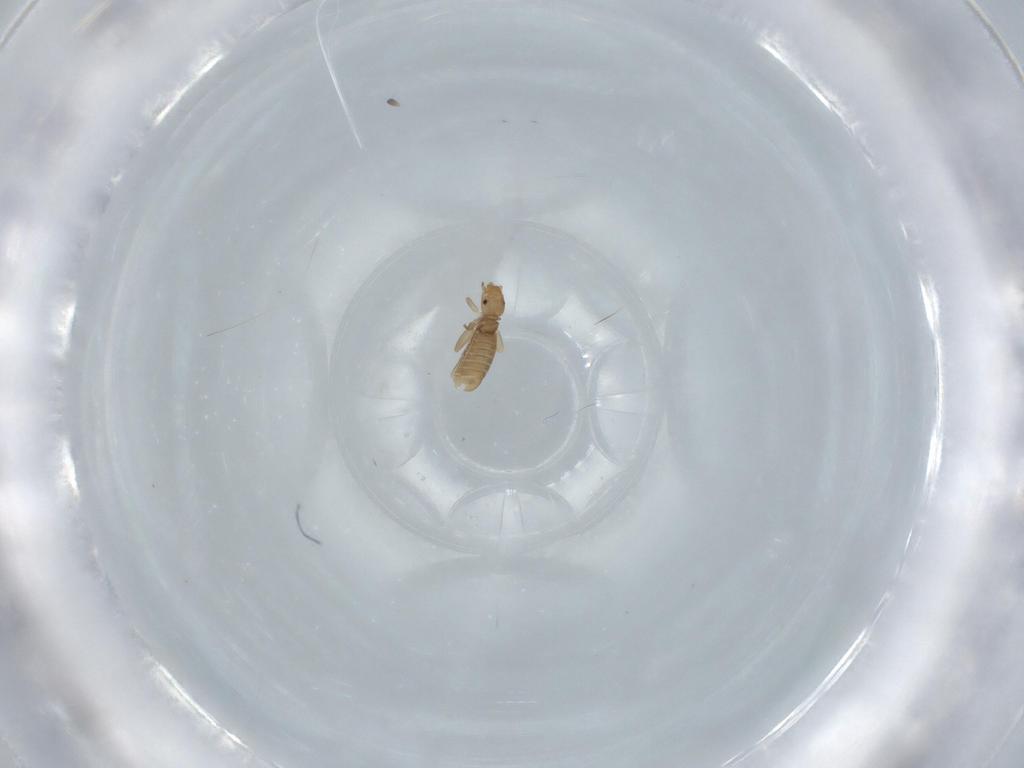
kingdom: Animalia
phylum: Arthropoda
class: Insecta
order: Psocodea
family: Liposcelididae
